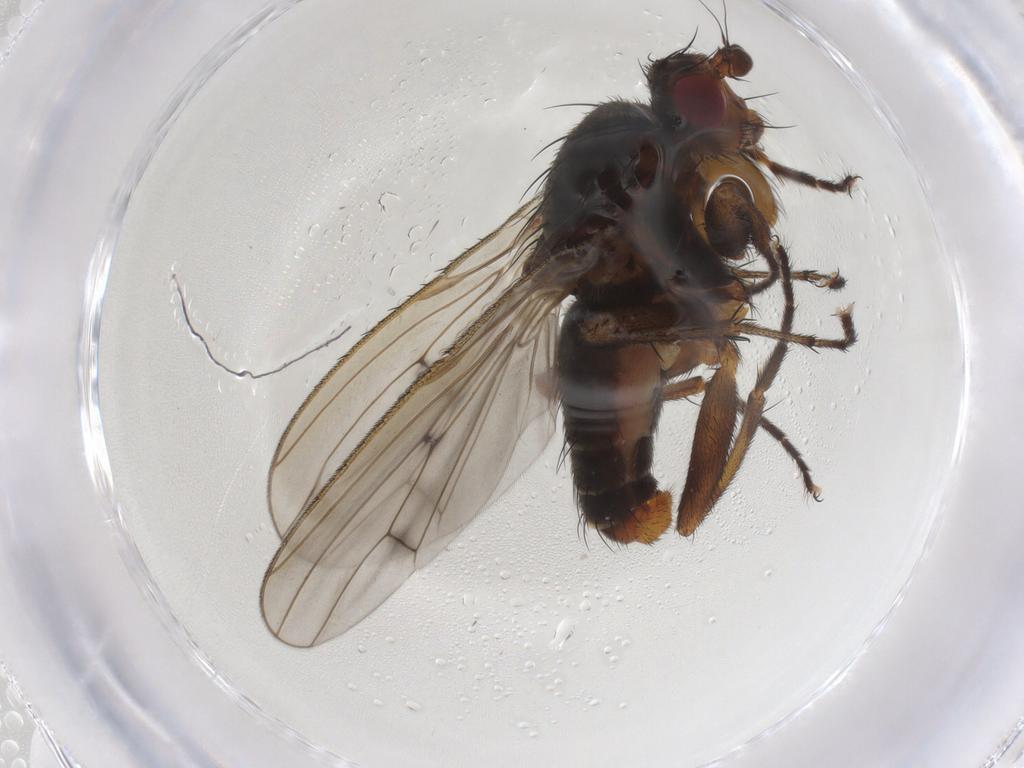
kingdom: Animalia
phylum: Arthropoda
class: Insecta
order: Diptera
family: Heleomyzidae
